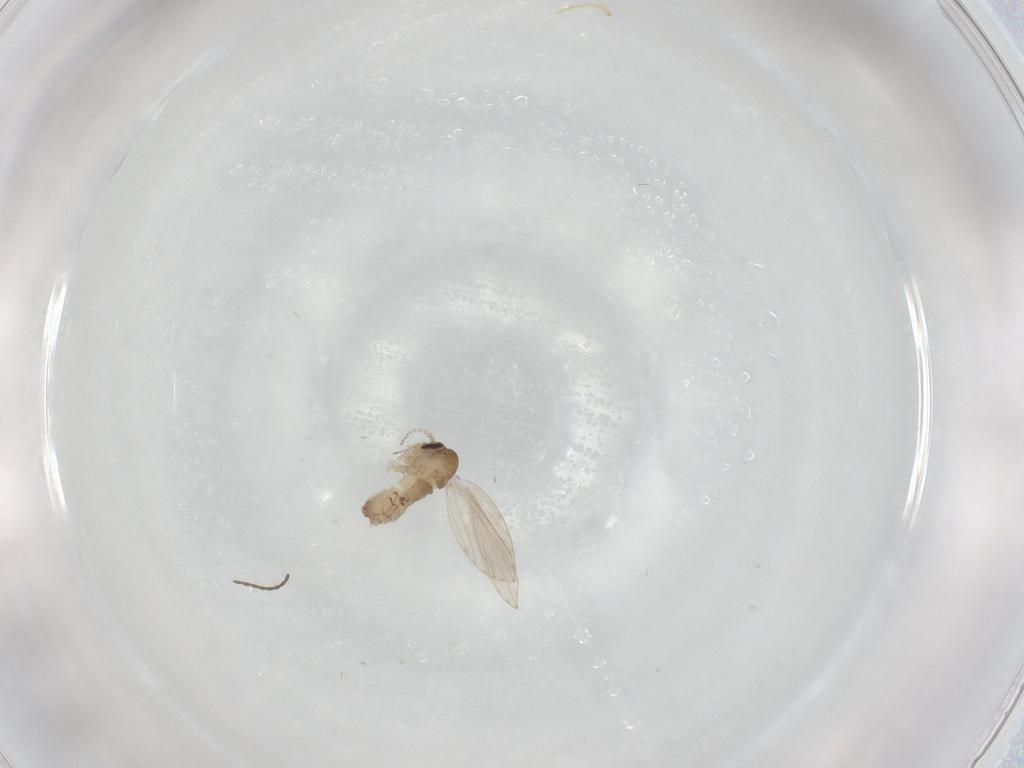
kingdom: Animalia
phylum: Arthropoda
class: Insecta
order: Diptera
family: Psychodidae
